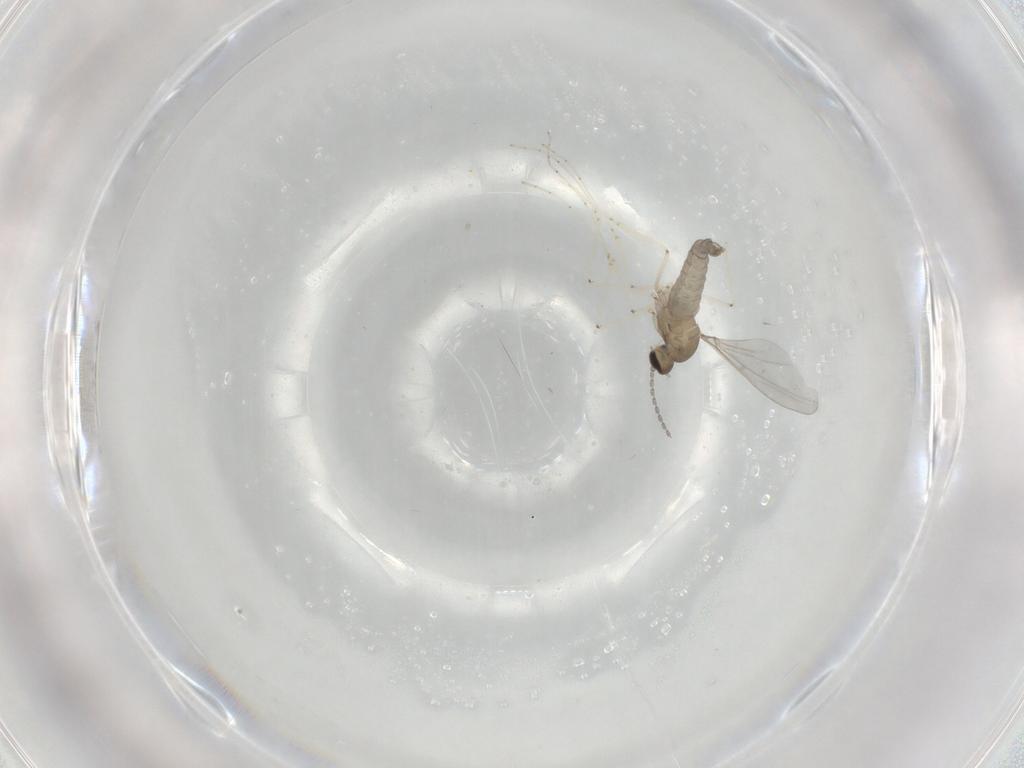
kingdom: Animalia
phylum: Arthropoda
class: Insecta
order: Diptera
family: Cecidomyiidae
